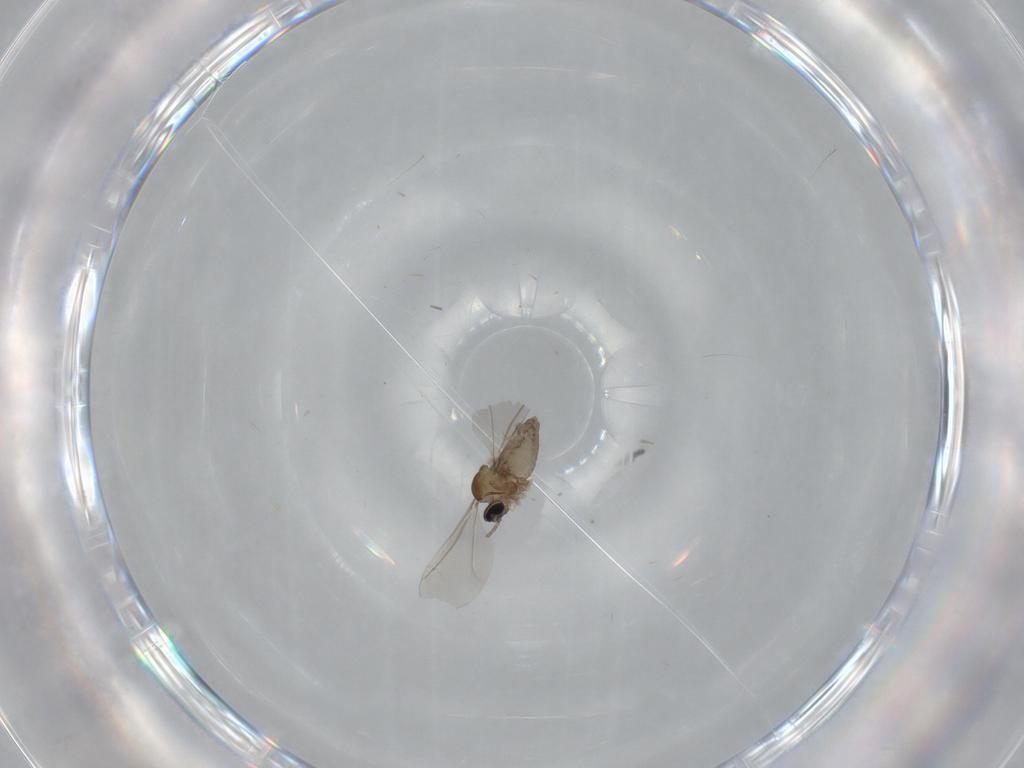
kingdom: Animalia
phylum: Arthropoda
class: Insecta
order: Diptera
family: Cecidomyiidae
